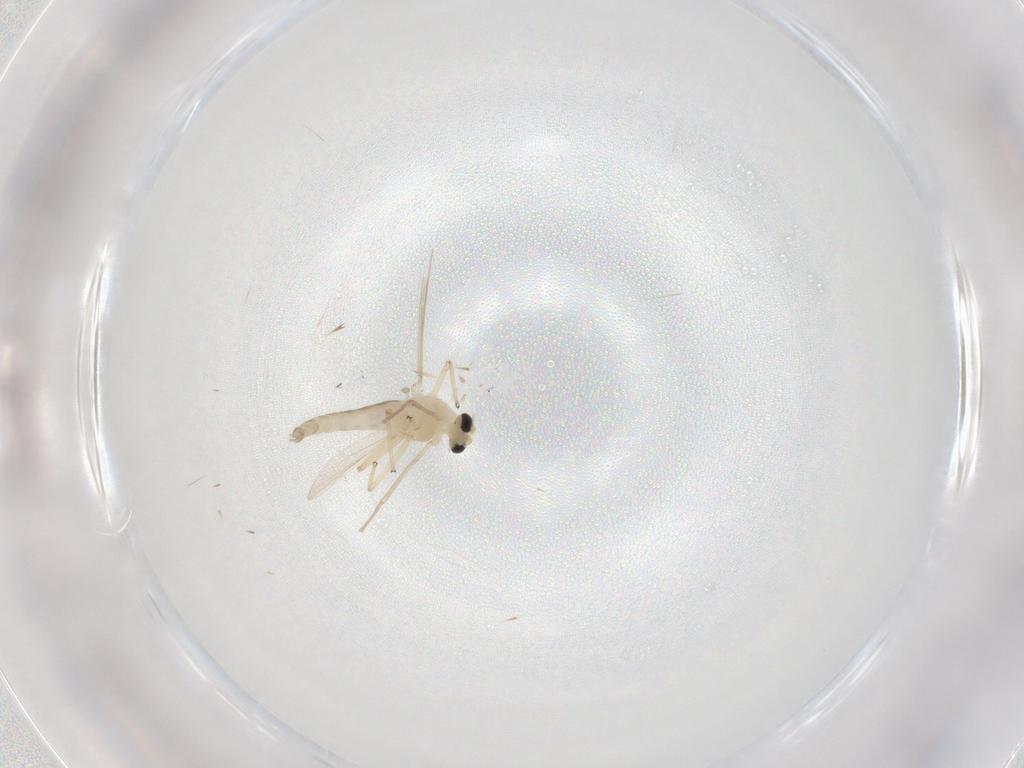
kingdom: Animalia
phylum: Arthropoda
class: Insecta
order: Diptera
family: Chironomidae
